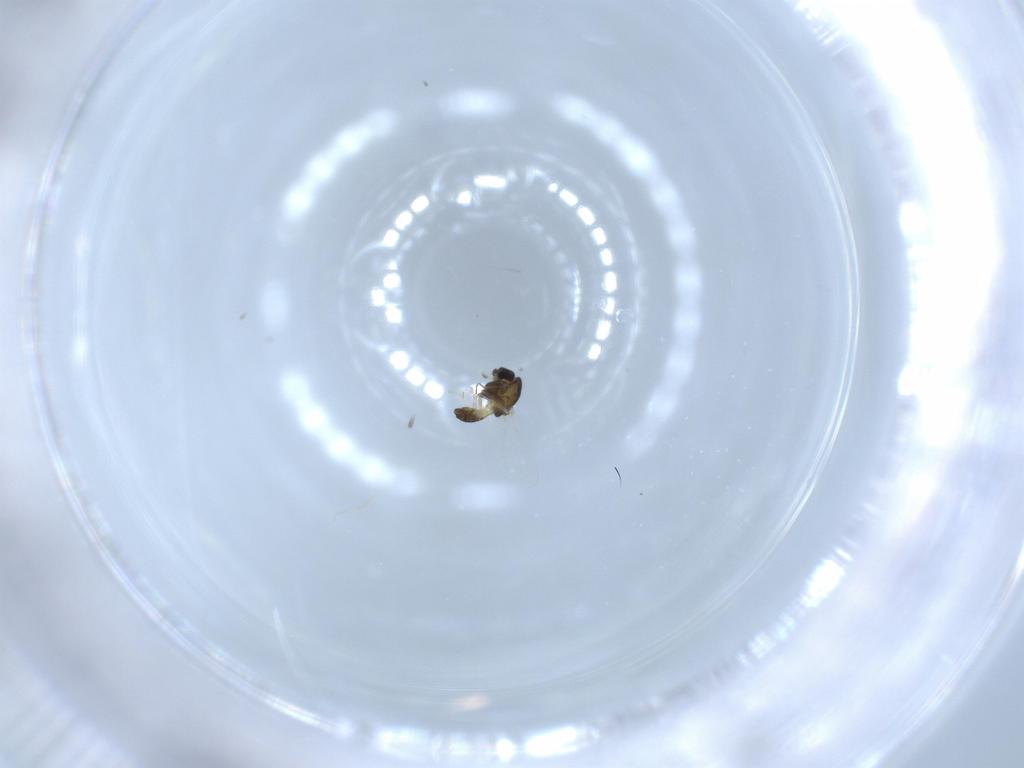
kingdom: Animalia
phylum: Arthropoda
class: Insecta
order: Diptera
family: Chironomidae
